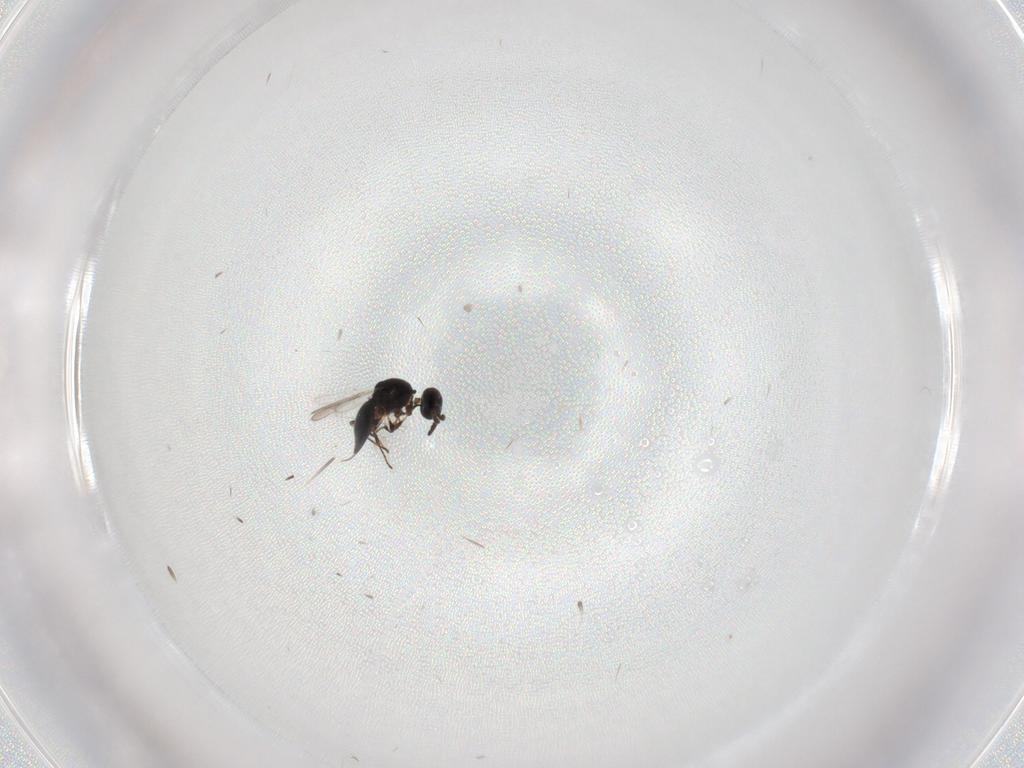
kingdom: Animalia
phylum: Arthropoda
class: Insecta
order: Hymenoptera
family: Platygastridae
